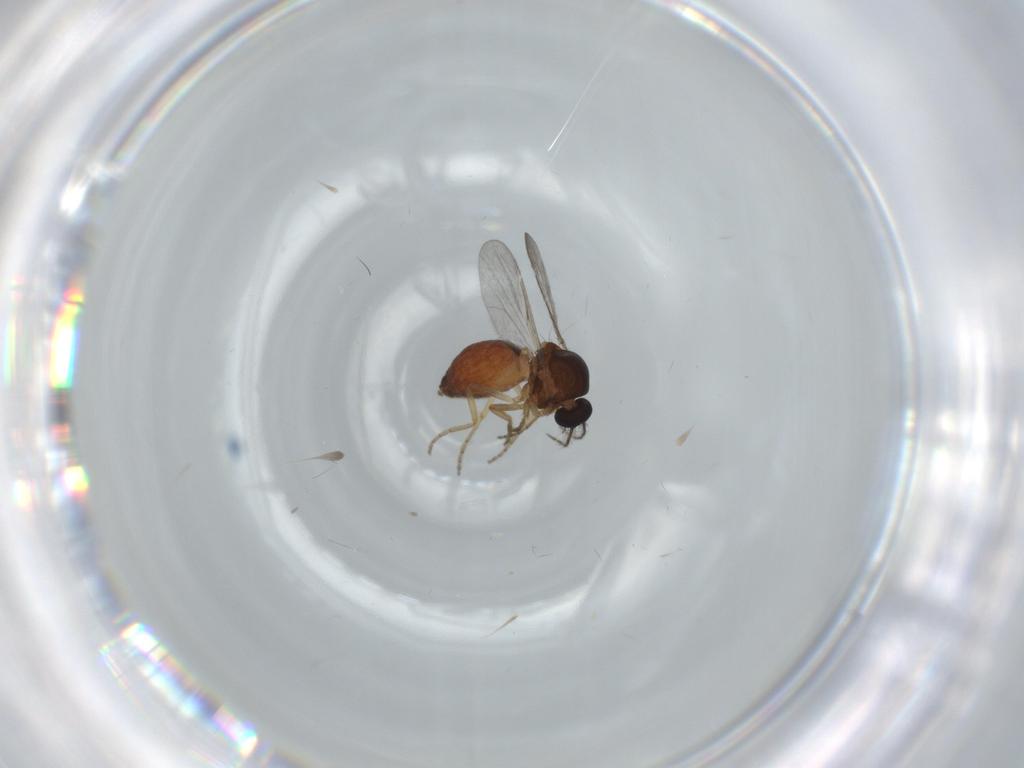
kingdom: Animalia
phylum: Arthropoda
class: Insecta
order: Diptera
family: Ceratopogonidae
